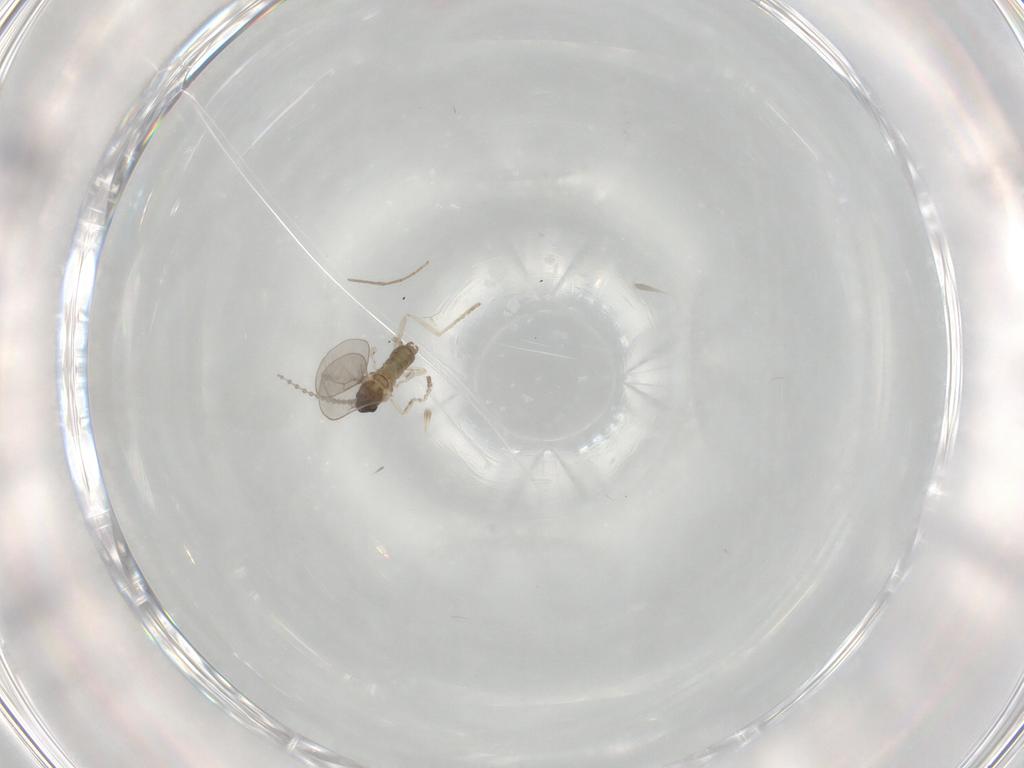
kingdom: Animalia
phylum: Arthropoda
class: Insecta
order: Diptera
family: Cecidomyiidae
